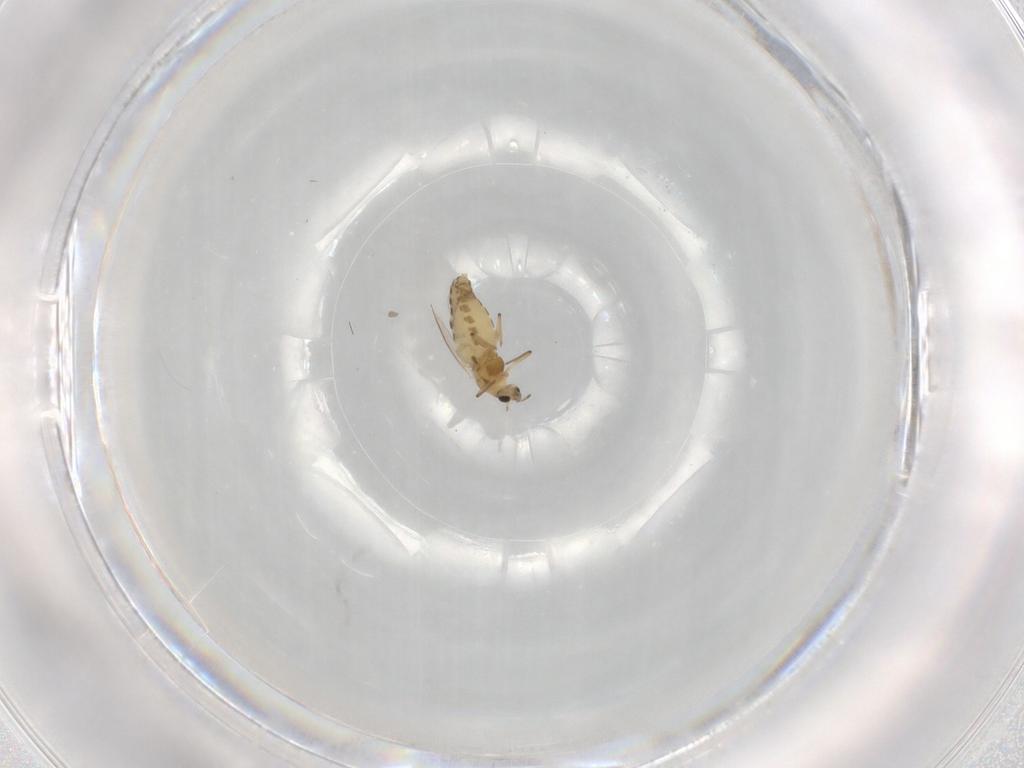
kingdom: Animalia
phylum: Arthropoda
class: Insecta
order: Diptera
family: Chironomidae
